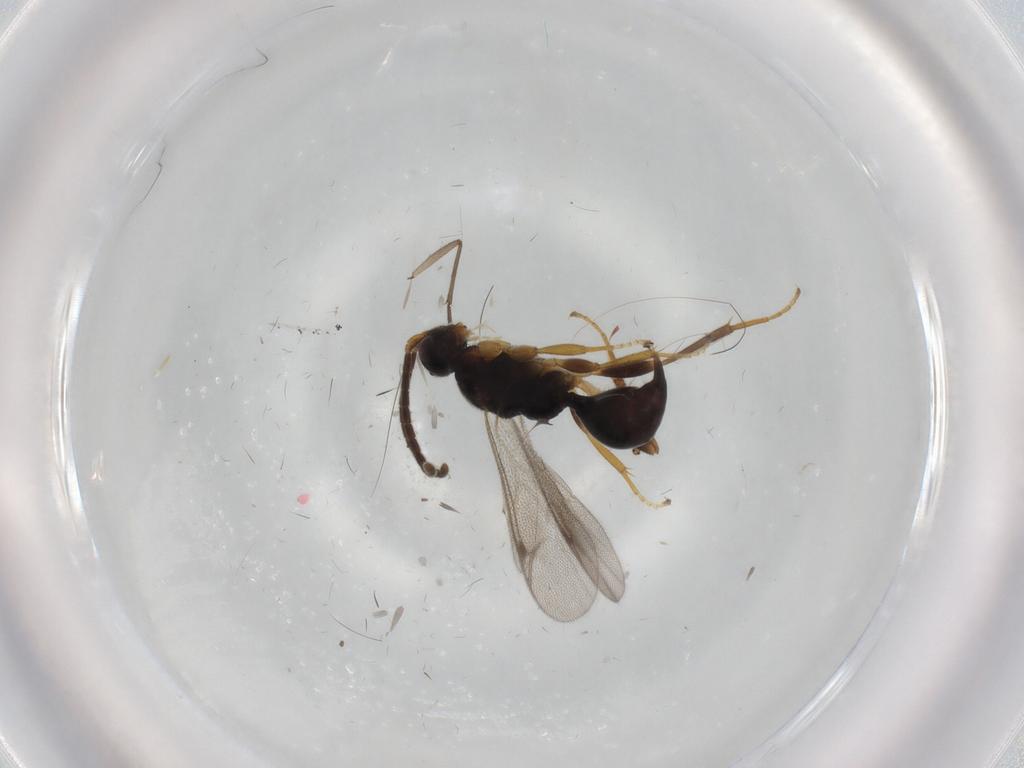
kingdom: Animalia
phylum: Arthropoda
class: Insecta
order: Hymenoptera
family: Proctotrupidae
